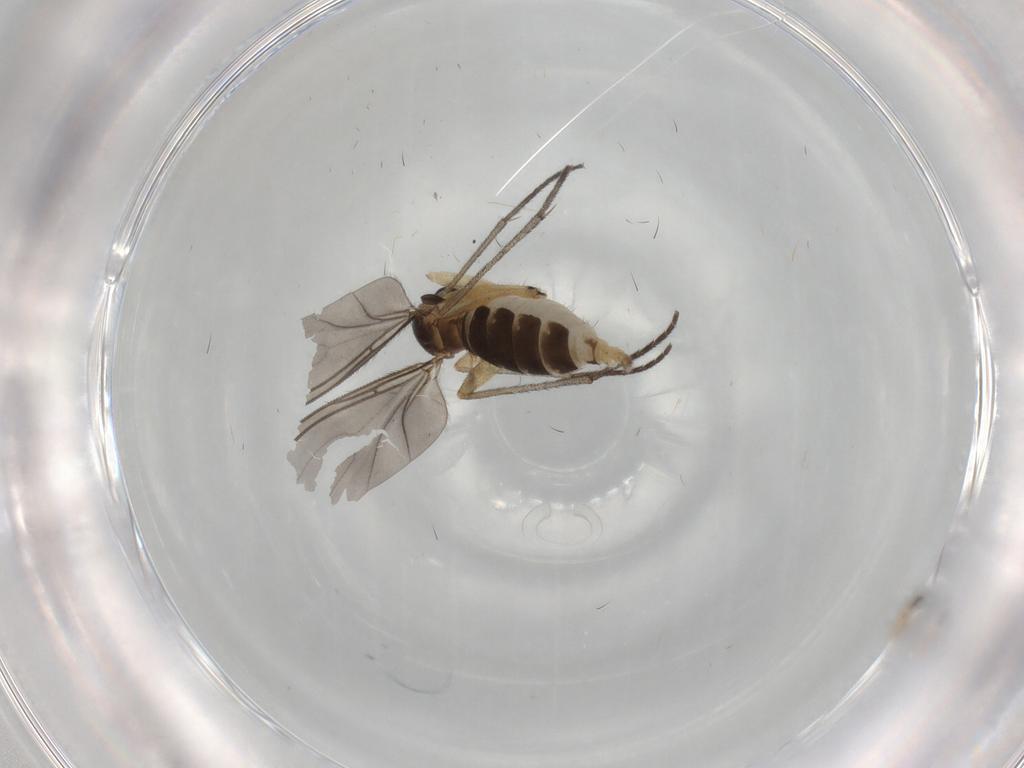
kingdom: Animalia
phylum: Arthropoda
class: Insecta
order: Diptera
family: Sciaridae
